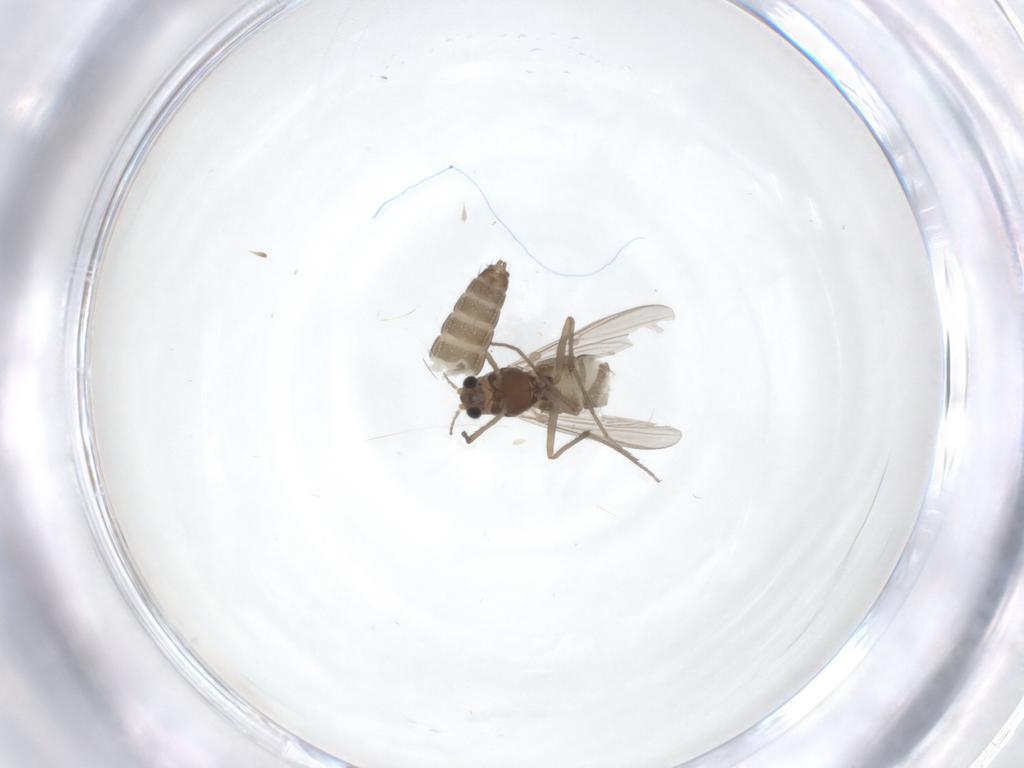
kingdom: Animalia
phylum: Arthropoda
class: Insecta
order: Diptera
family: Chironomidae
